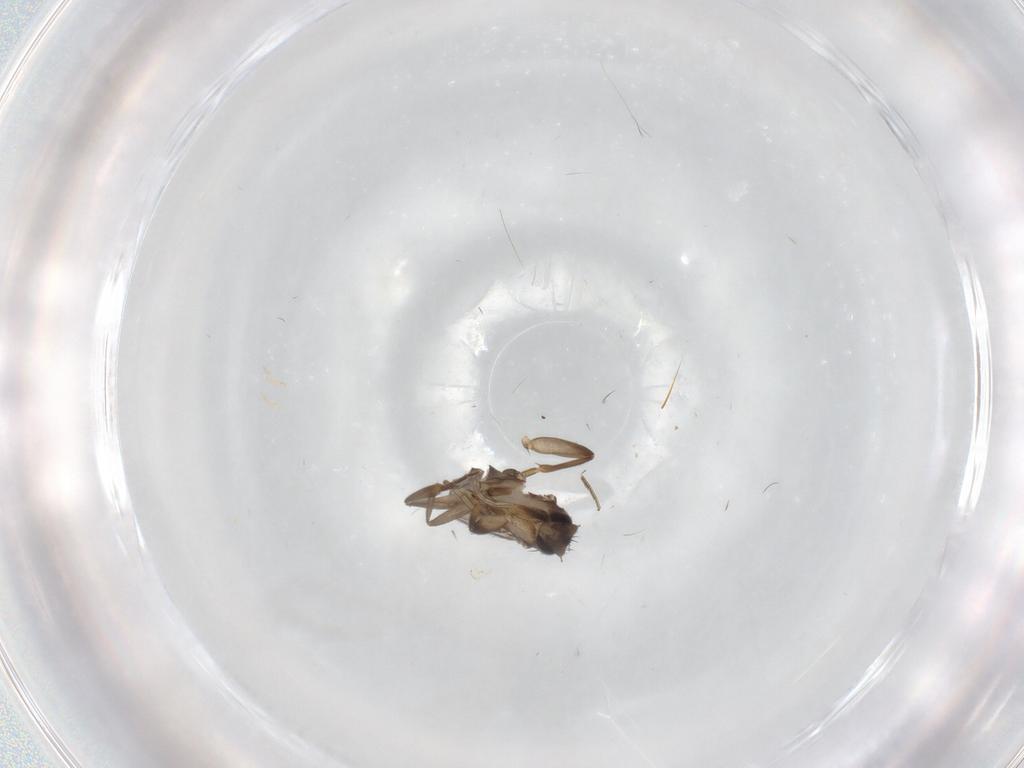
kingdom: Animalia
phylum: Arthropoda
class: Insecta
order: Diptera
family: Phoridae
